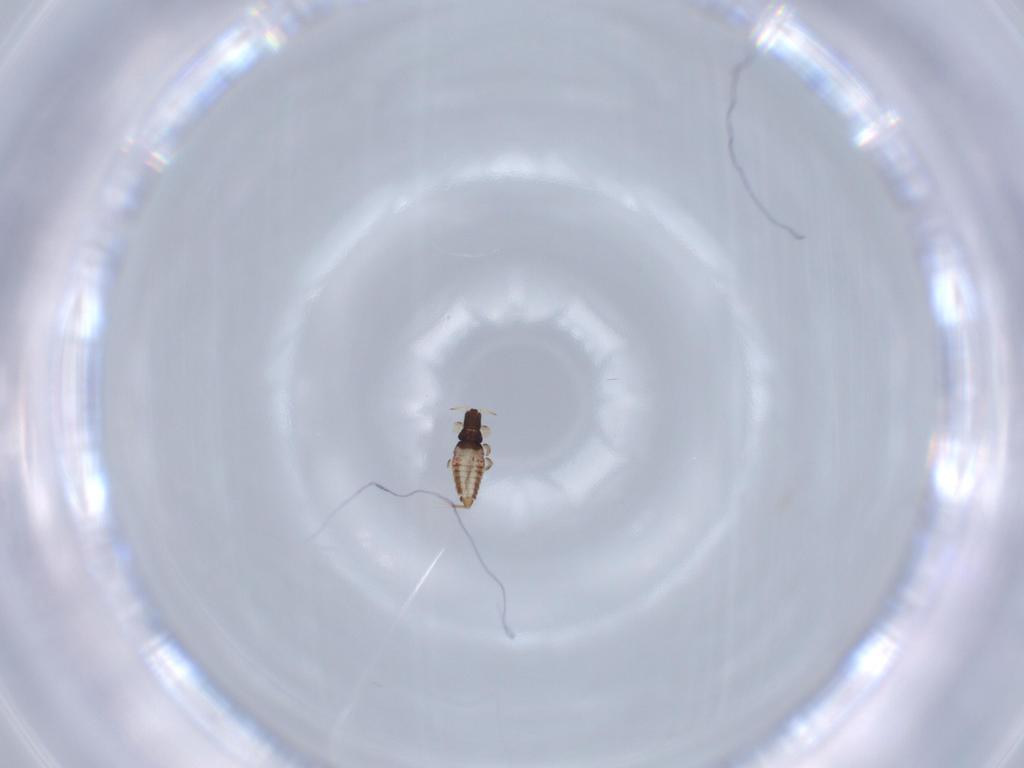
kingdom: Animalia
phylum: Arthropoda
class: Insecta
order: Thysanoptera
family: Phlaeothripidae
